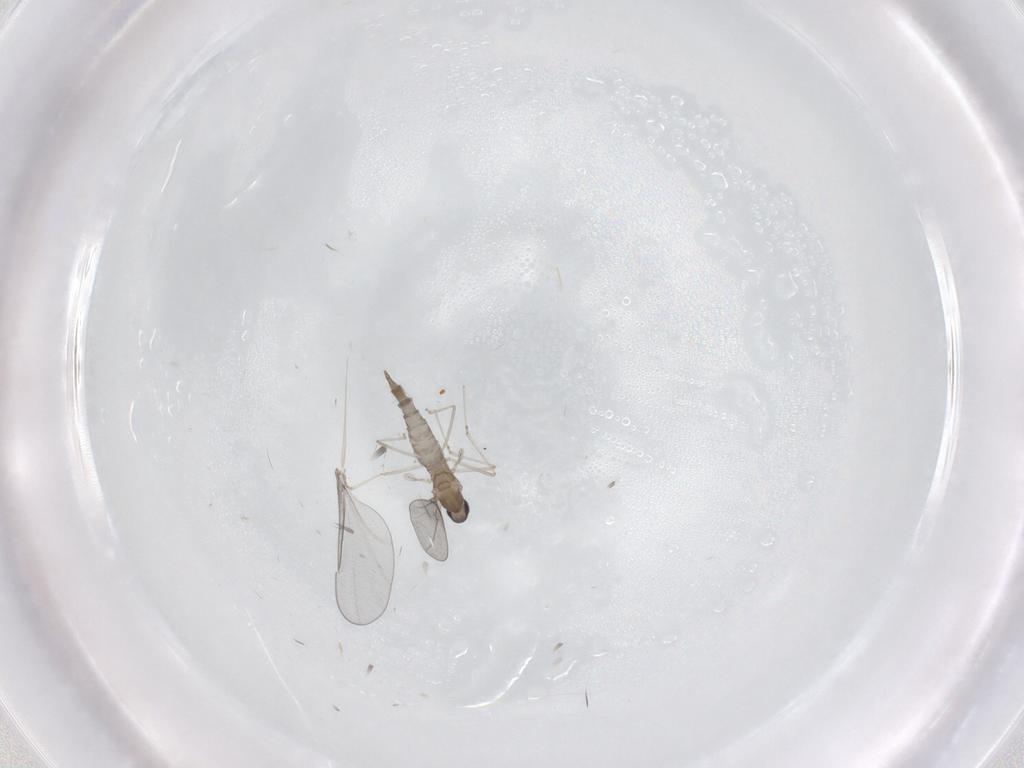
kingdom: Animalia
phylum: Arthropoda
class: Insecta
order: Diptera
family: Cecidomyiidae
